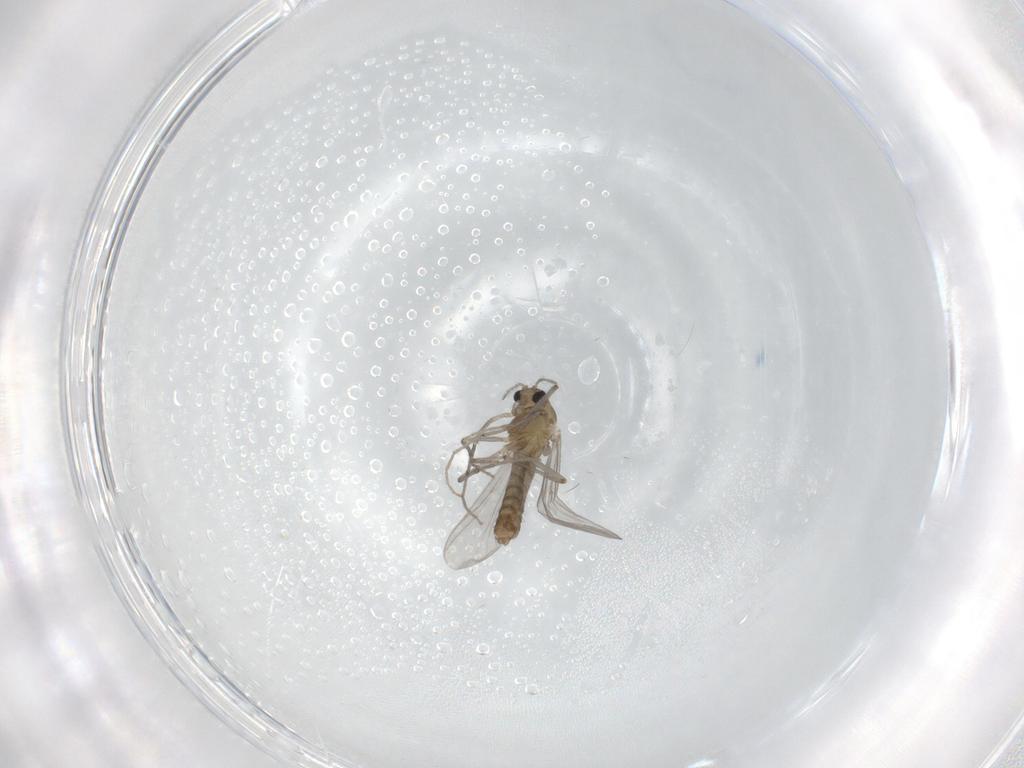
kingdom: Animalia
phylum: Arthropoda
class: Insecta
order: Diptera
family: Chironomidae
